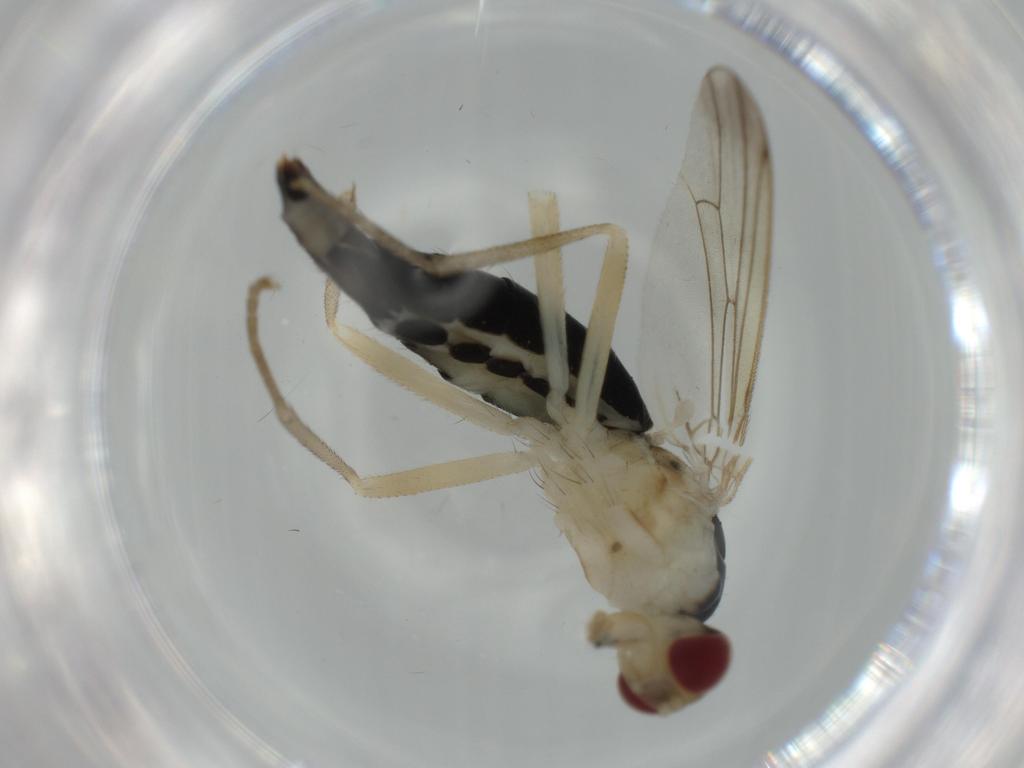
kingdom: Animalia
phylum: Arthropoda
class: Insecta
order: Diptera
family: Scathophagidae
